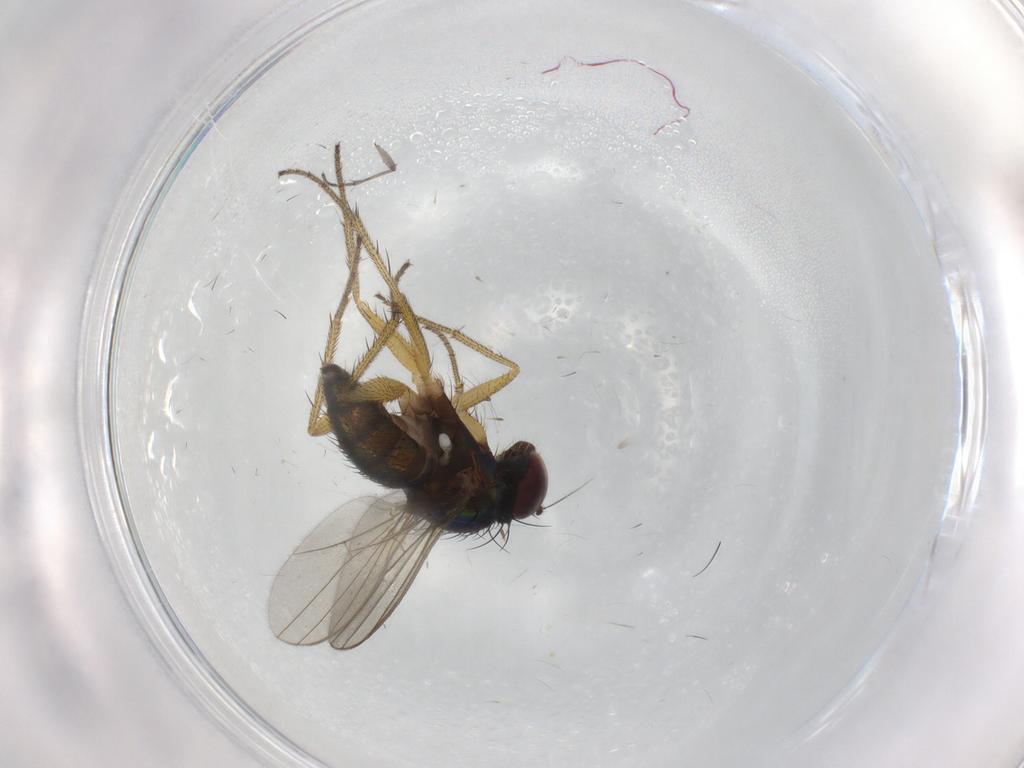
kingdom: Animalia
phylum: Arthropoda
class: Insecta
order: Diptera
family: Sciaridae
